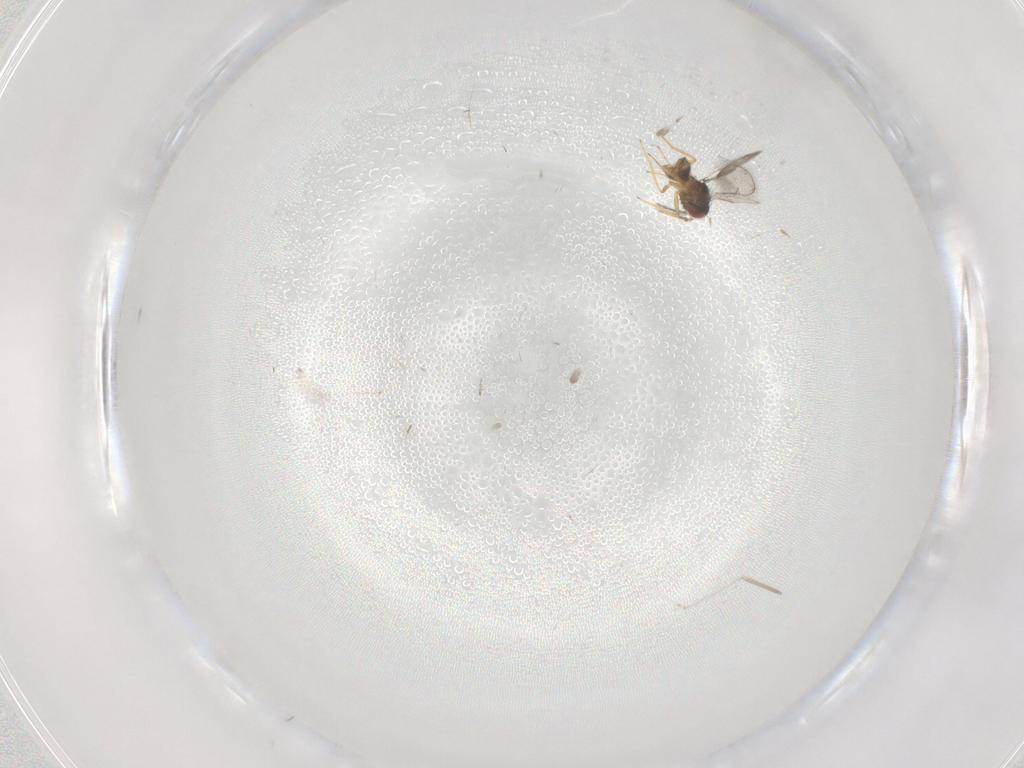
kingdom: Animalia
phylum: Arthropoda
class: Insecta
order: Hymenoptera
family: Eulophidae
